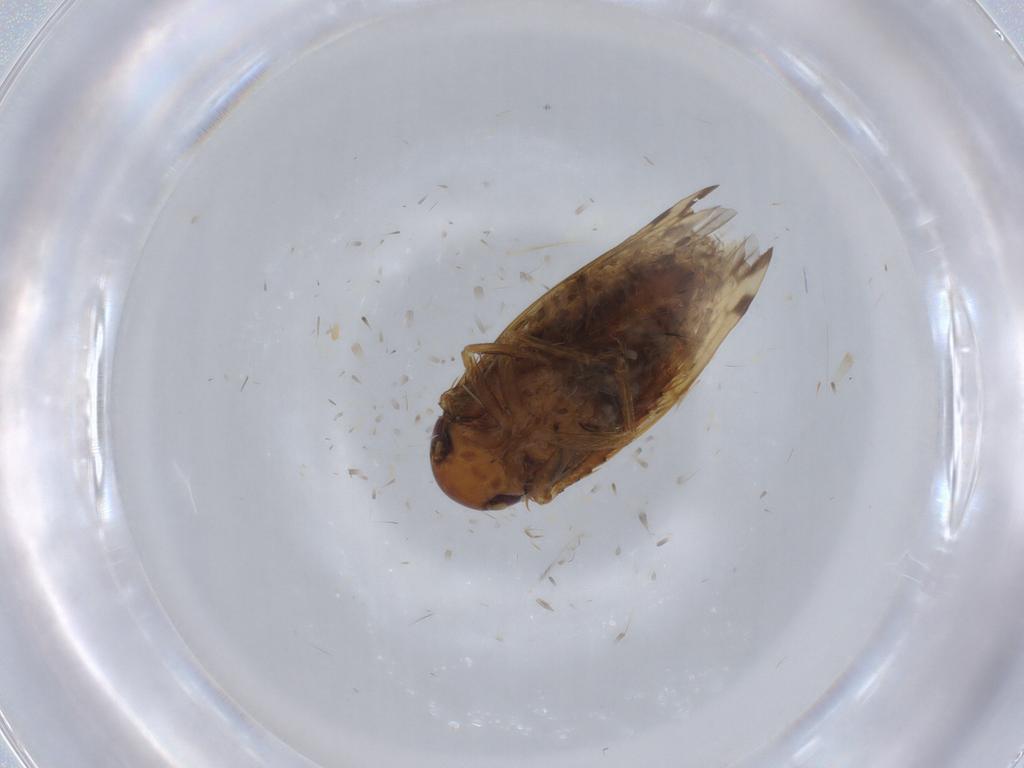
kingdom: Animalia
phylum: Arthropoda
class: Insecta
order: Hemiptera
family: Cicadellidae
